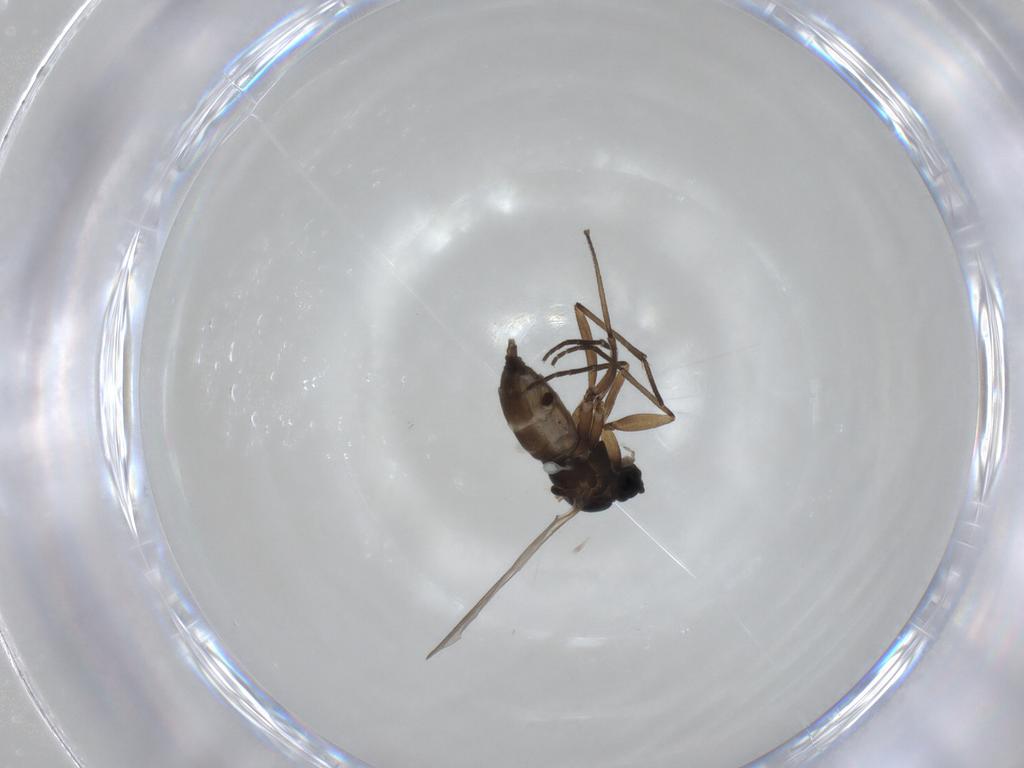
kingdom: Animalia
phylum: Arthropoda
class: Insecta
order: Diptera
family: Sciaridae
